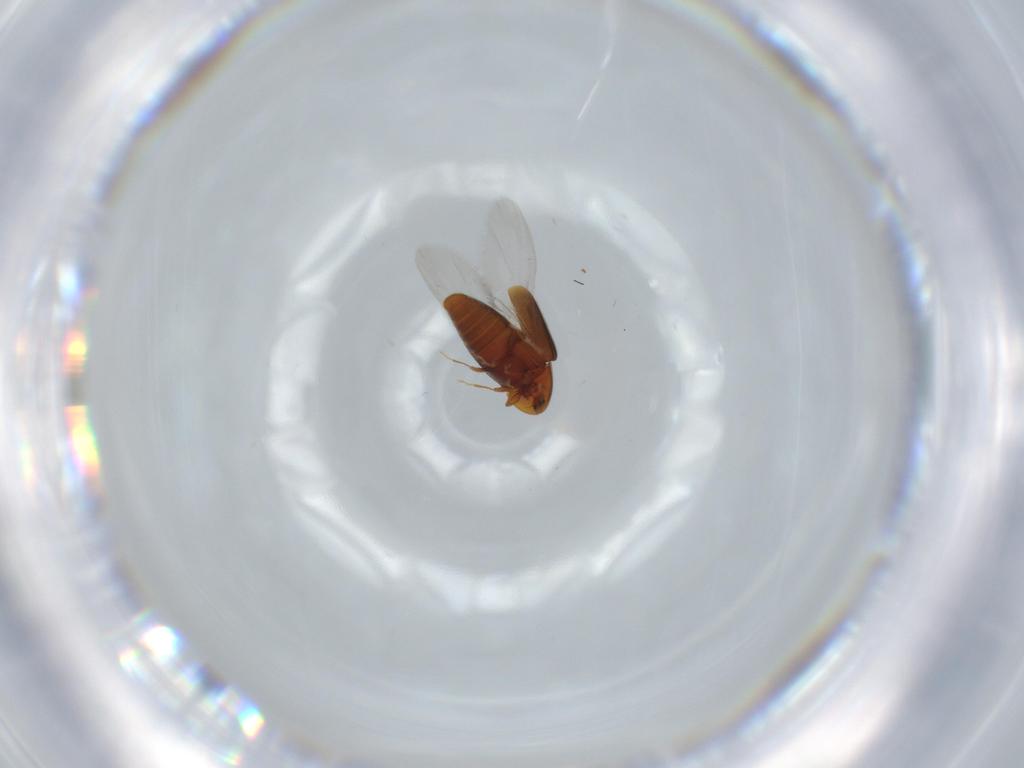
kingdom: Animalia
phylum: Arthropoda
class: Insecta
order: Coleoptera
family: Corylophidae
